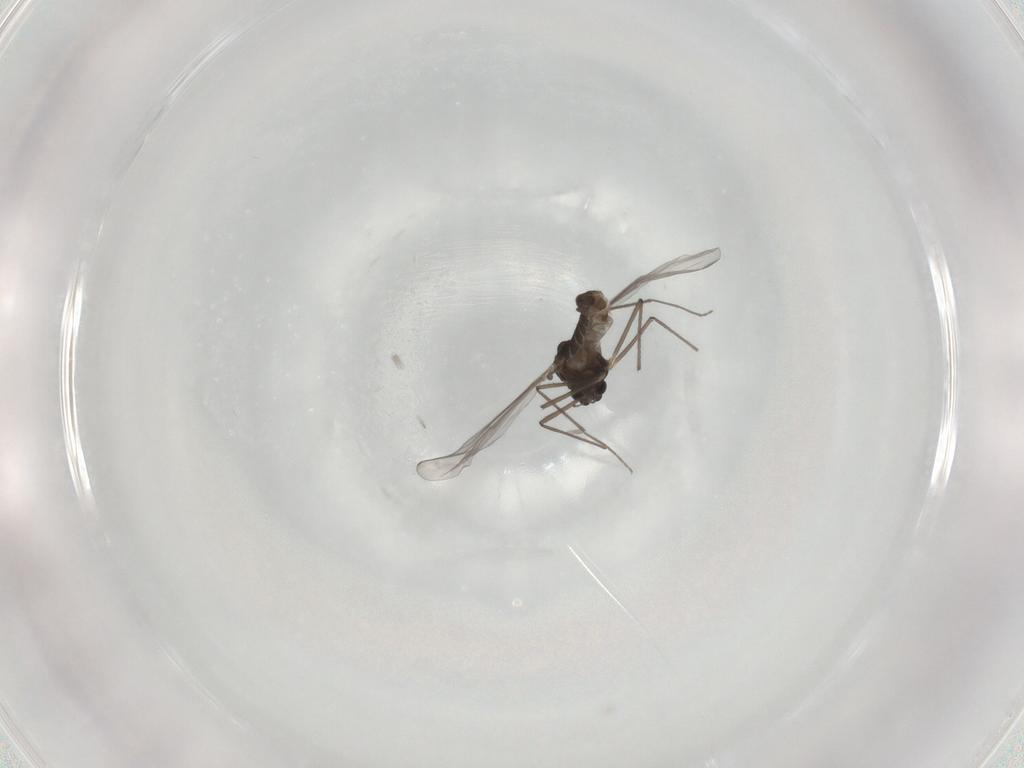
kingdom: Animalia
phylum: Arthropoda
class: Insecta
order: Diptera
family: Chironomidae
